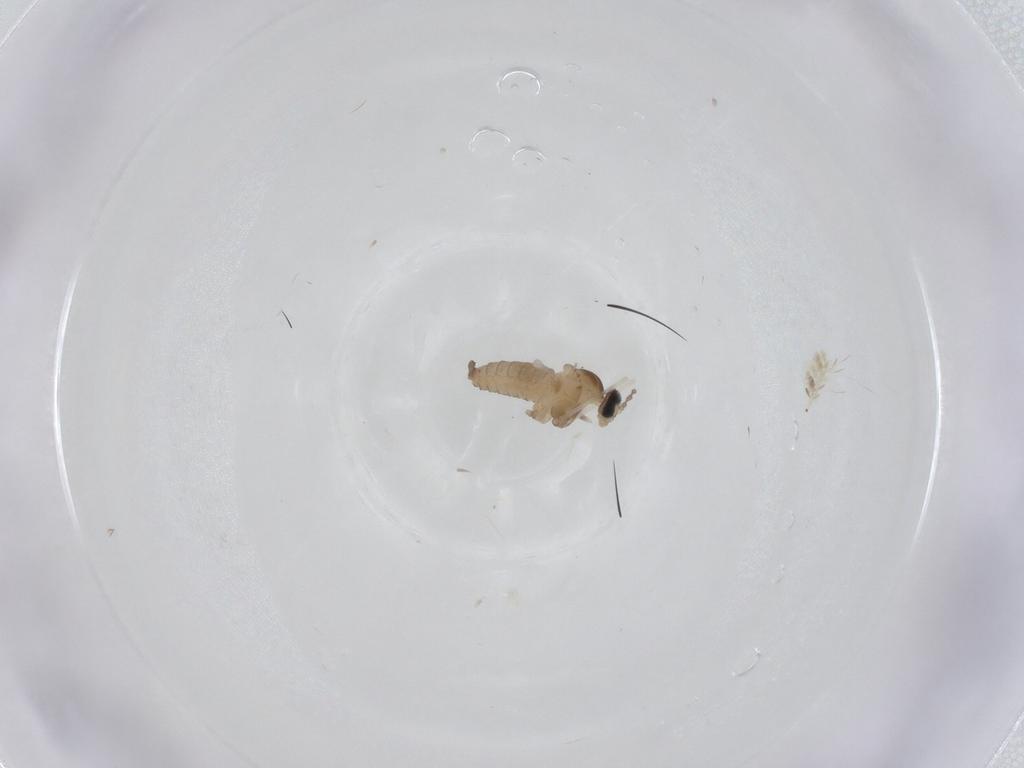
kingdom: Animalia
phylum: Arthropoda
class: Insecta
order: Diptera
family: Cecidomyiidae
